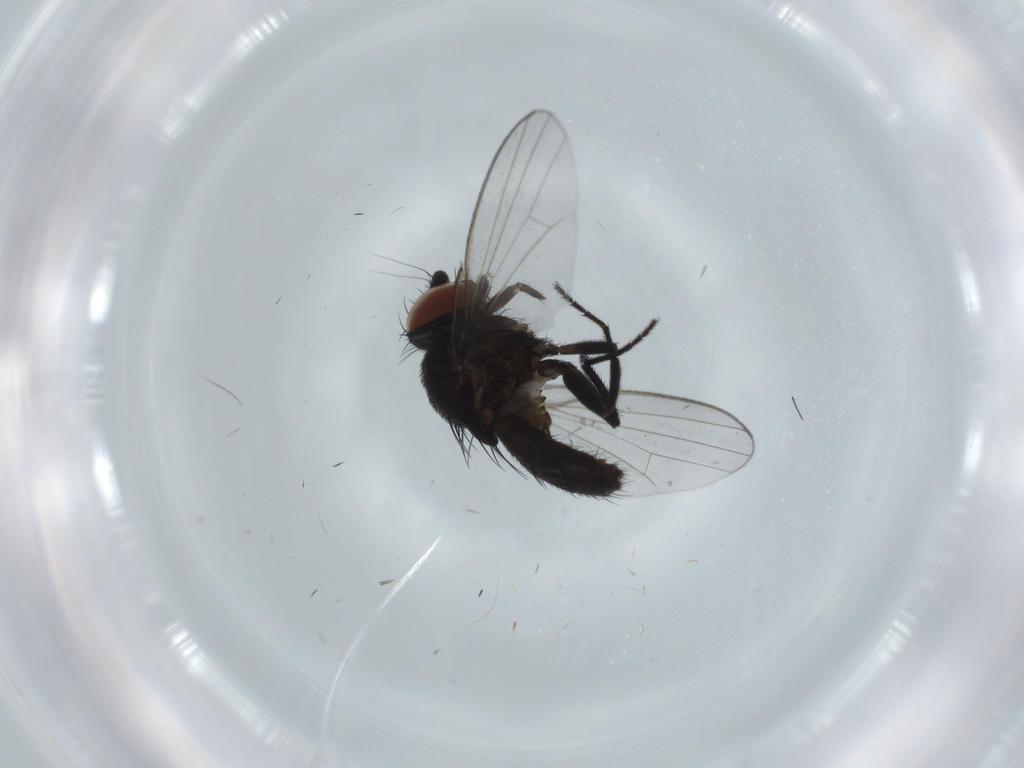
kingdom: Animalia
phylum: Arthropoda
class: Insecta
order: Diptera
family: Milichiidae
